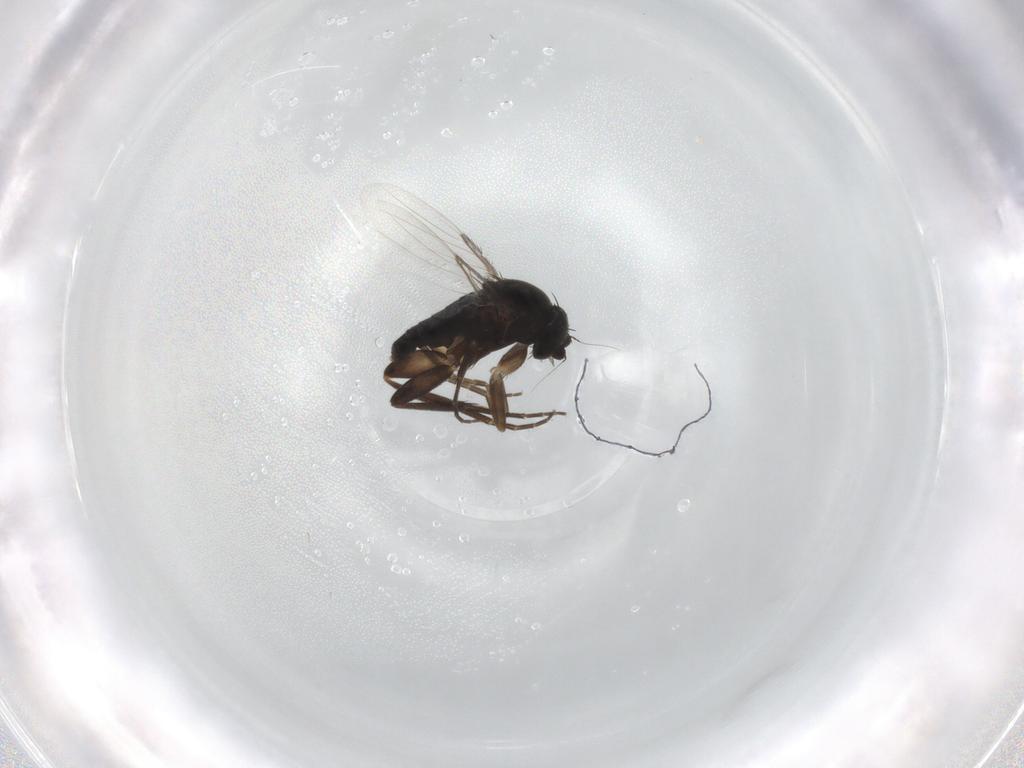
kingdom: Animalia
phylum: Arthropoda
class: Insecta
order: Diptera
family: Phoridae
